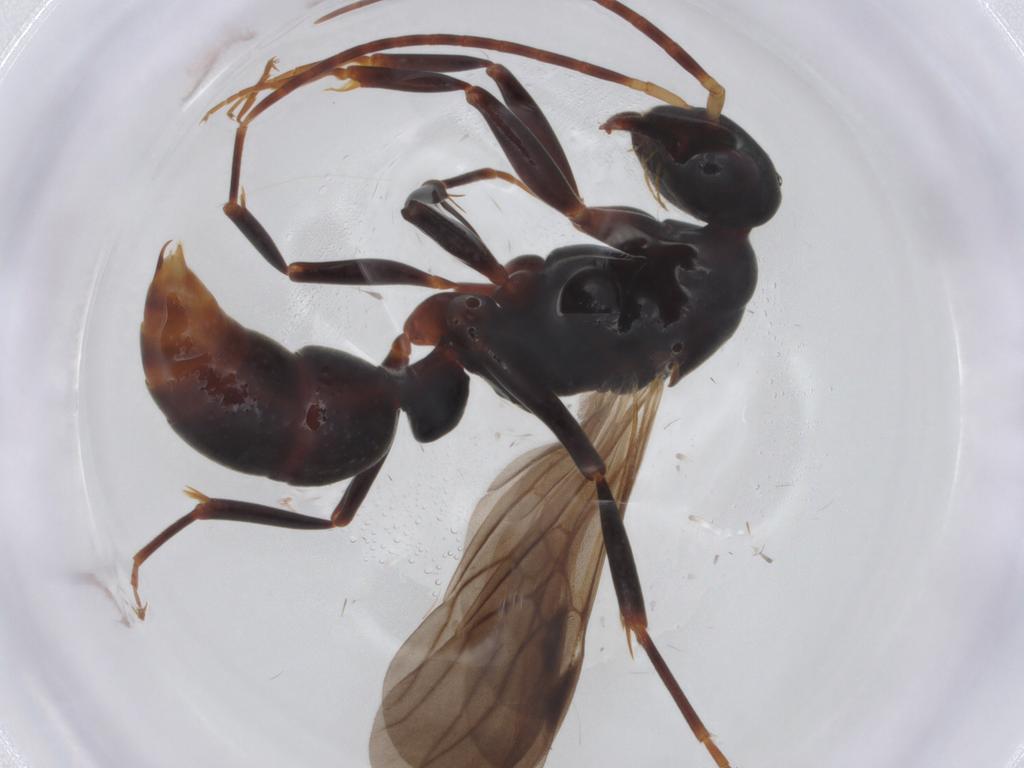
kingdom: Animalia
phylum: Arthropoda
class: Insecta
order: Hymenoptera
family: Formicidae
